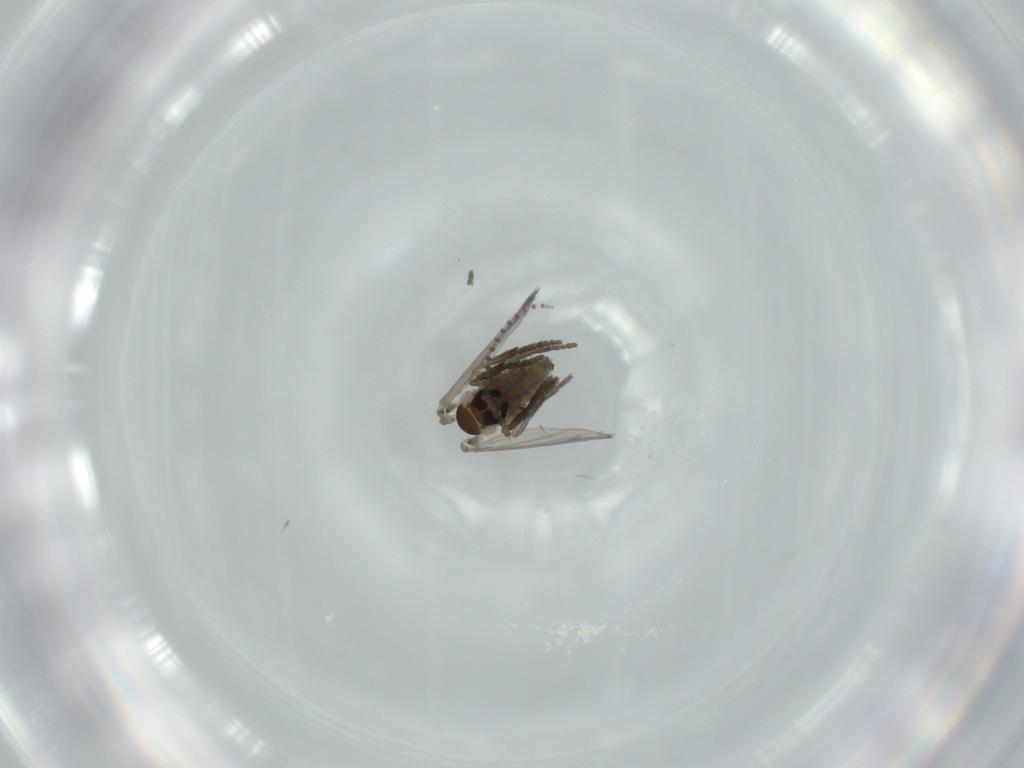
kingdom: Animalia
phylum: Arthropoda
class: Insecta
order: Diptera
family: Psychodidae
